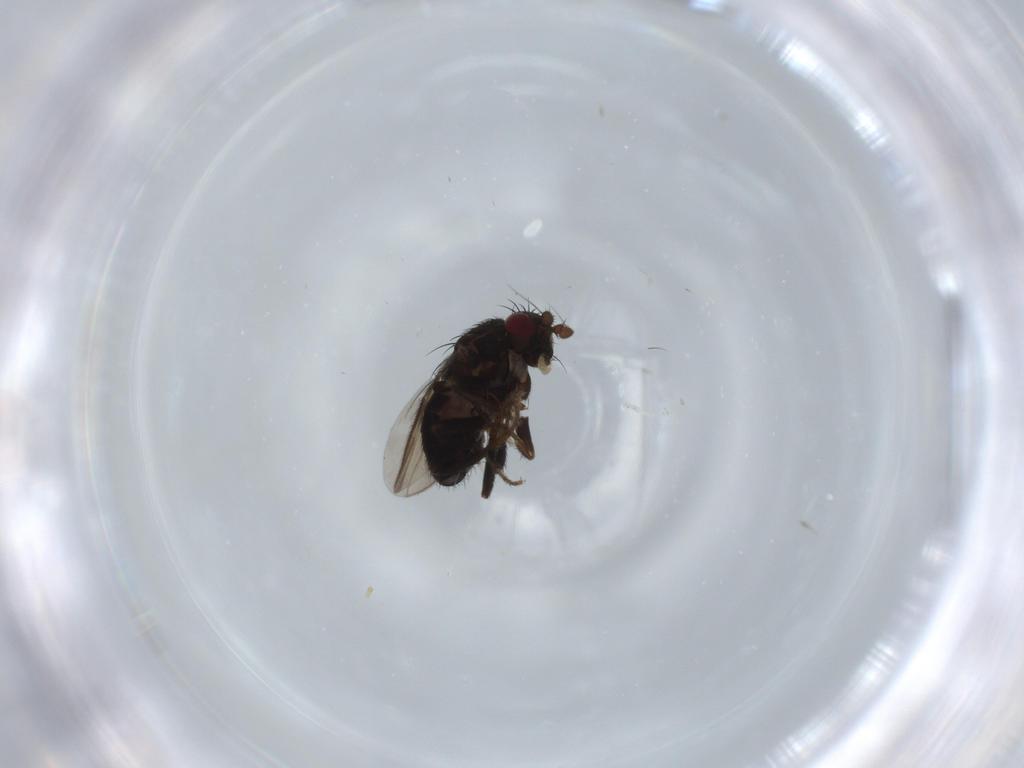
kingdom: Animalia
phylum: Arthropoda
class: Insecta
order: Diptera
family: Sphaeroceridae
